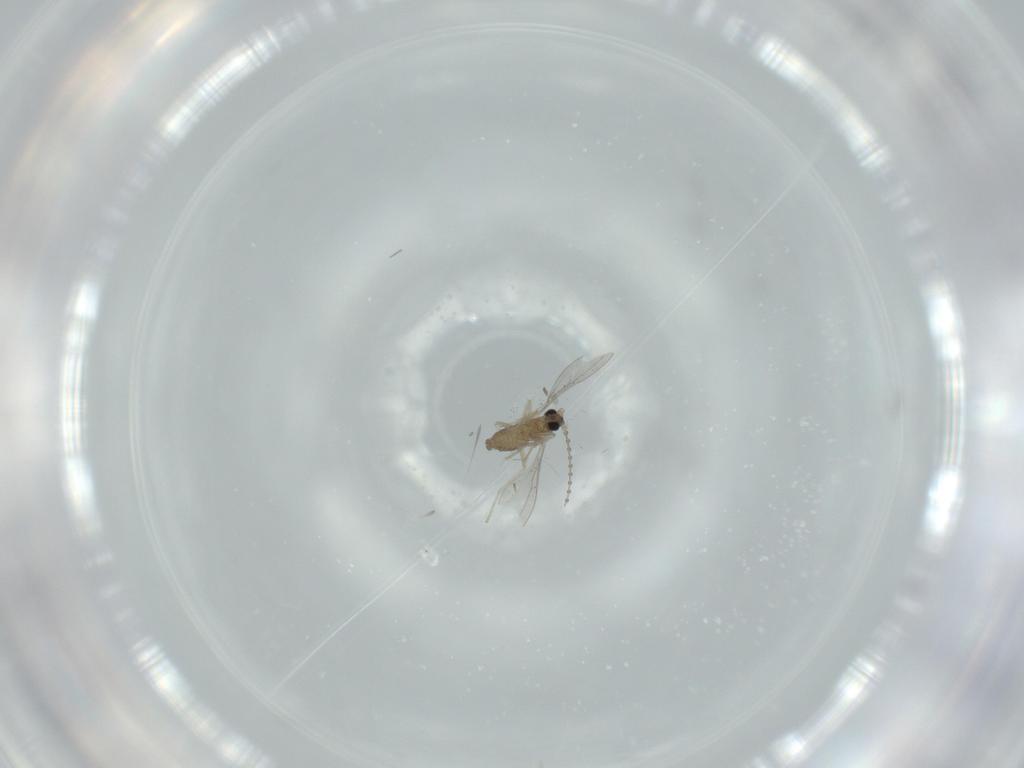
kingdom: Animalia
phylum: Arthropoda
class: Insecta
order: Diptera
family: Cecidomyiidae
